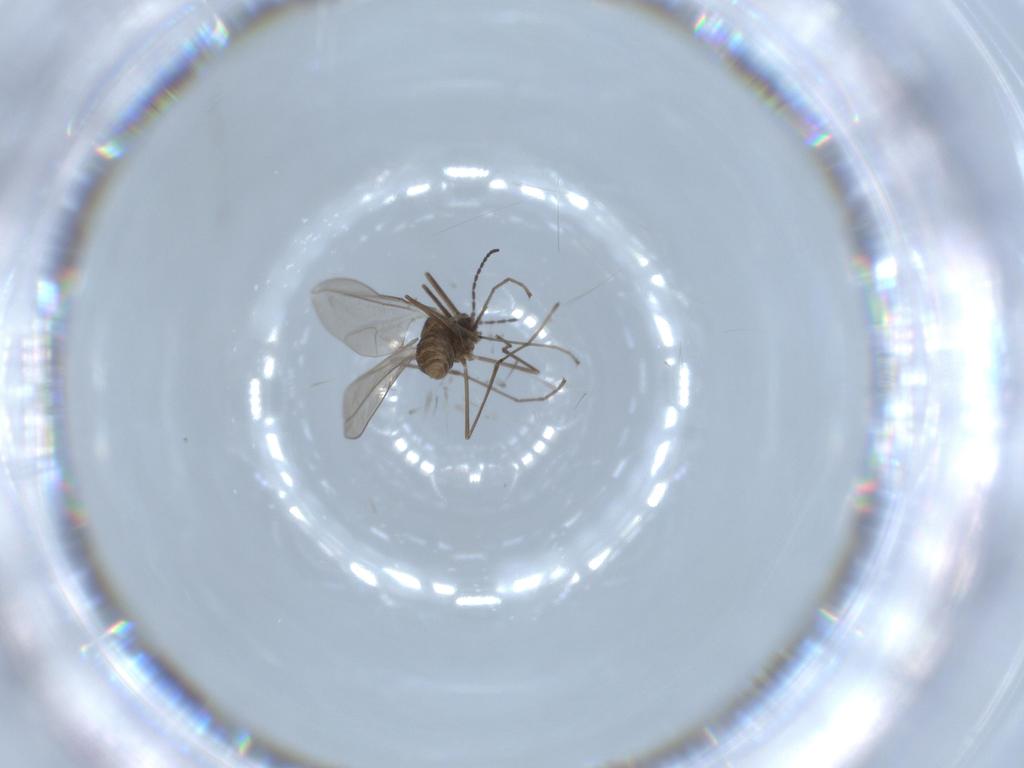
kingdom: Animalia
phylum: Arthropoda
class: Insecta
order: Diptera
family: Cecidomyiidae
